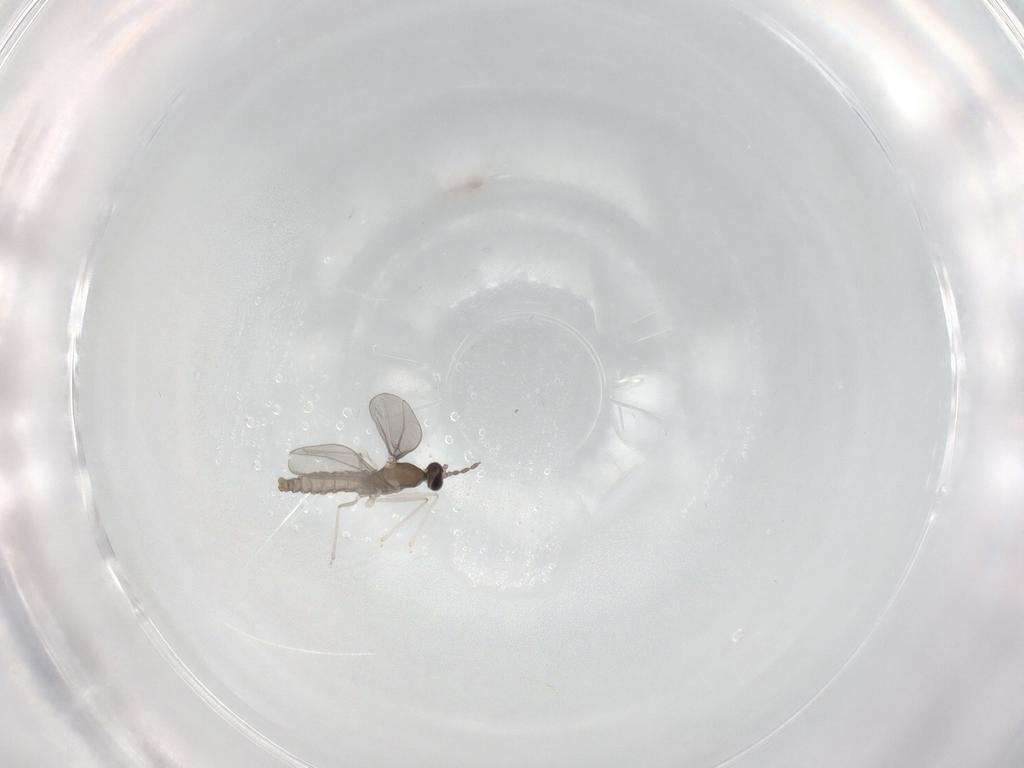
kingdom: Animalia
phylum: Arthropoda
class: Insecta
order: Diptera
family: Cecidomyiidae
